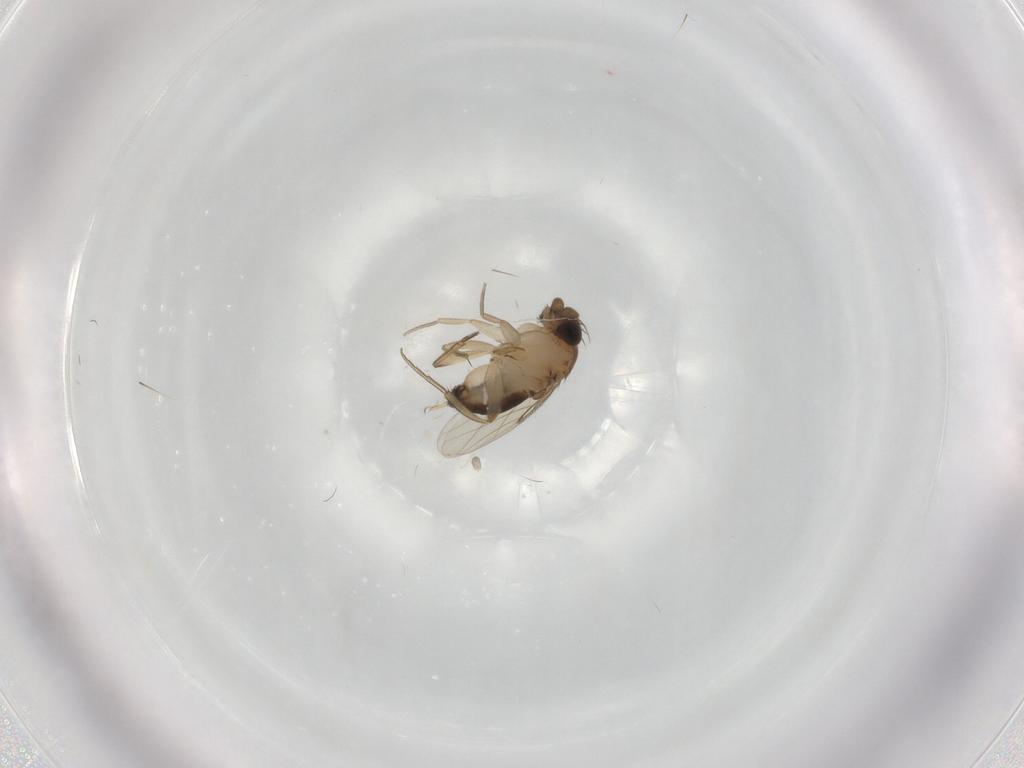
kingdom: Animalia
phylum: Arthropoda
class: Insecta
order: Diptera
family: Phoridae
